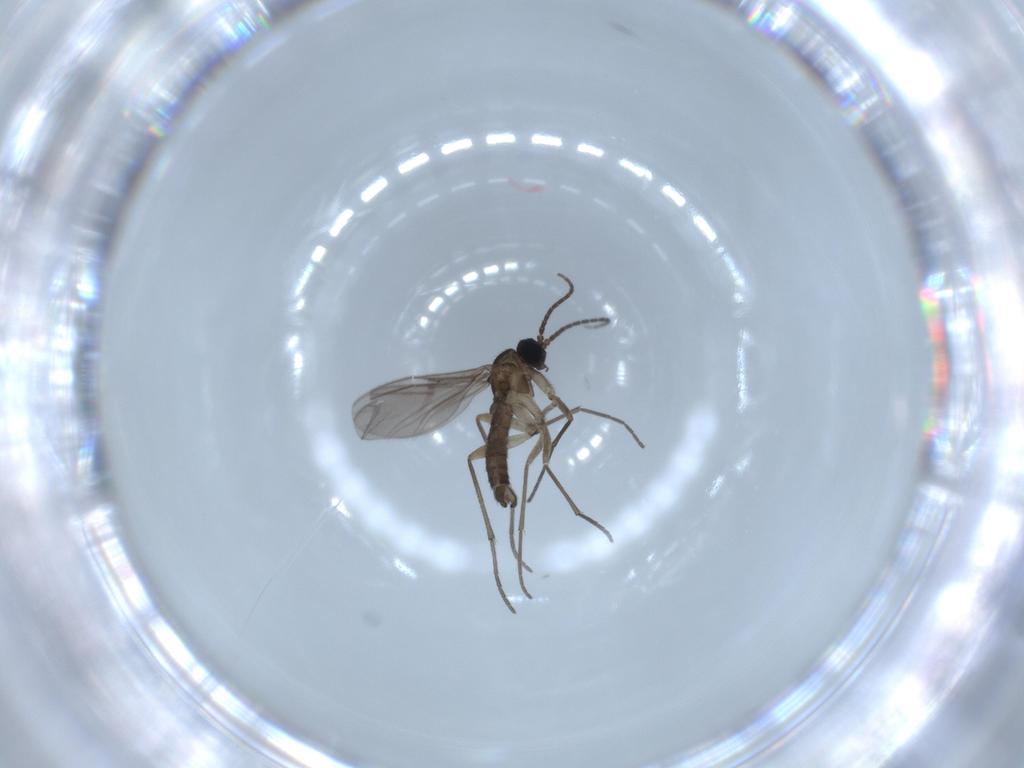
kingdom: Animalia
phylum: Arthropoda
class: Insecta
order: Diptera
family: Sciaridae
